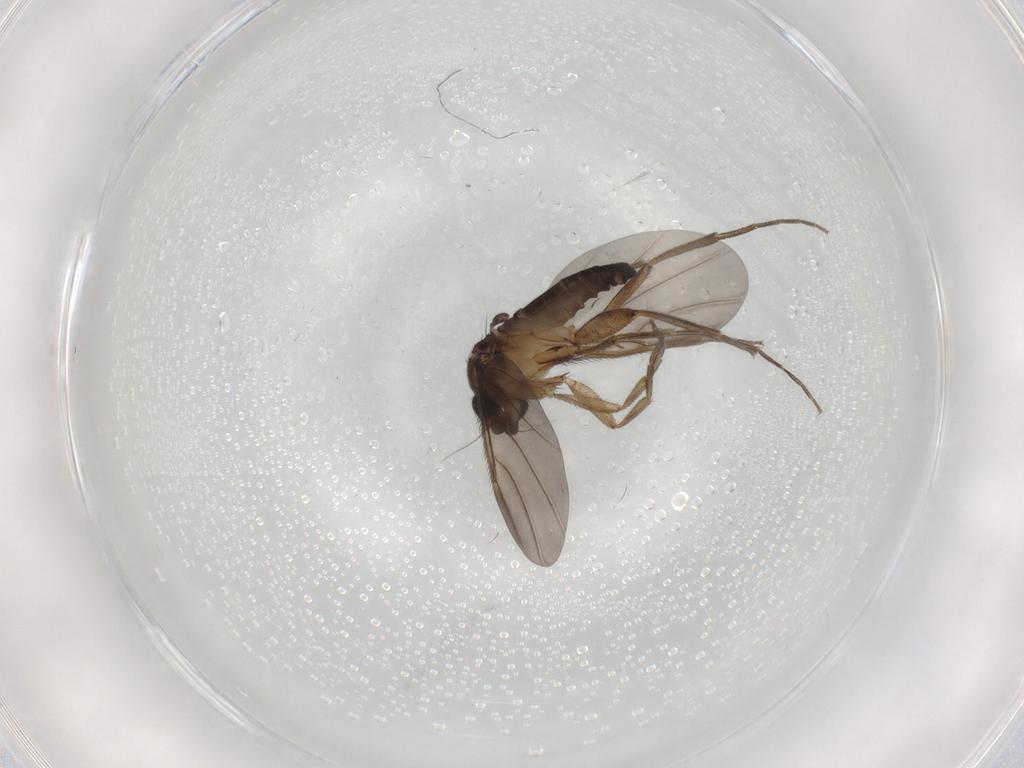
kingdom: Animalia
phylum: Arthropoda
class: Insecta
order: Diptera
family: Phoridae
